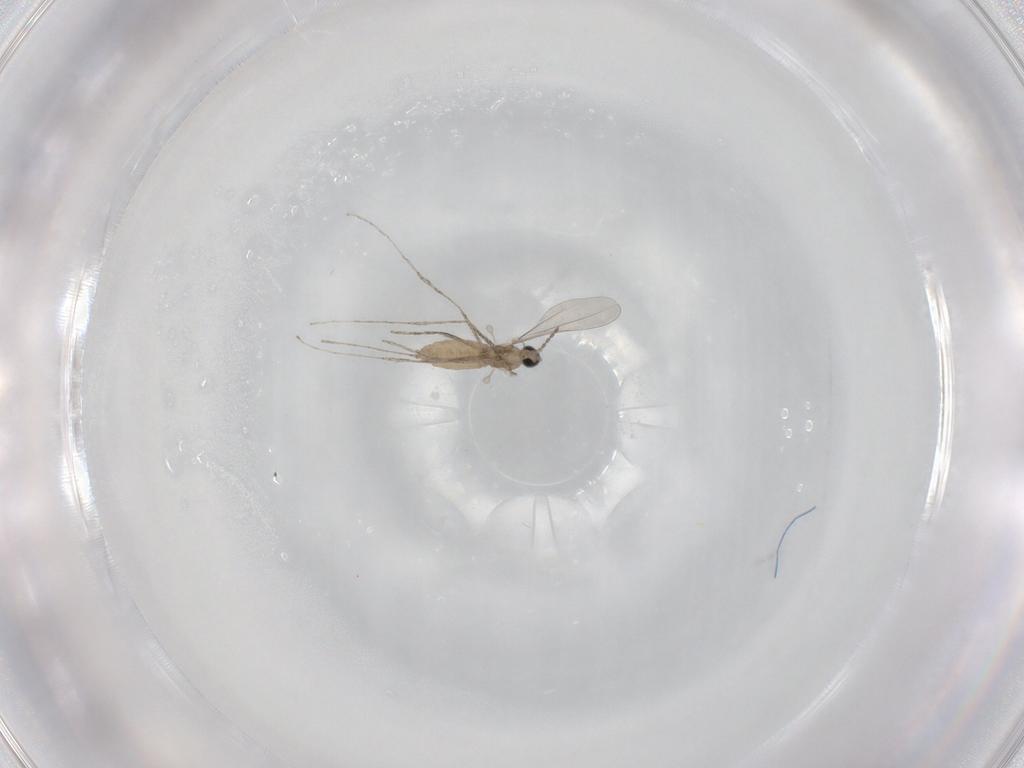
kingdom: Animalia
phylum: Arthropoda
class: Insecta
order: Diptera
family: Cecidomyiidae
